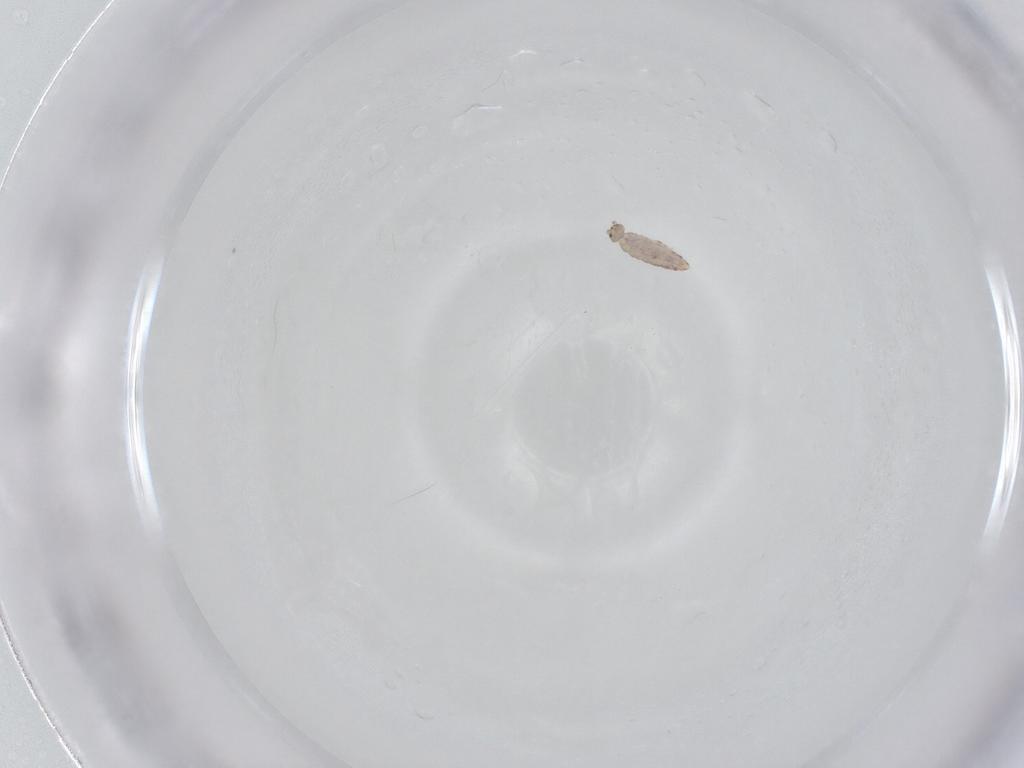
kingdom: Animalia
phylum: Arthropoda
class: Collembola
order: Entomobryomorpha
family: Entomobryidae
